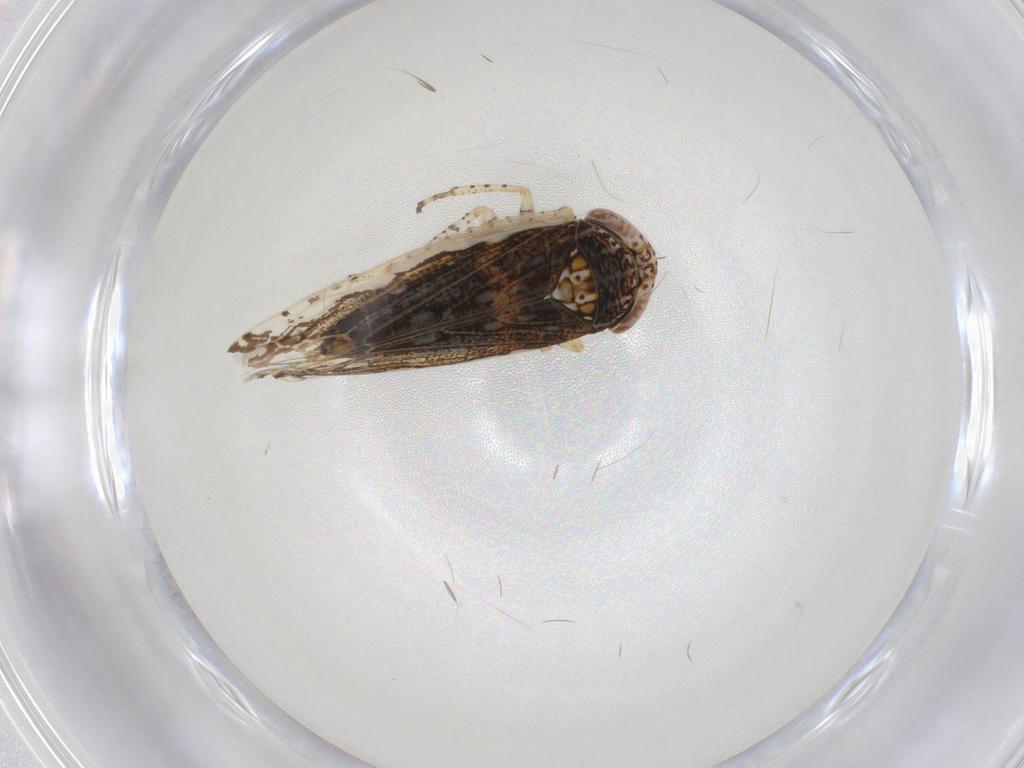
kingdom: Animalia
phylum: Arthropoda
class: Insecta
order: Hemiptera
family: Cicadellidae
